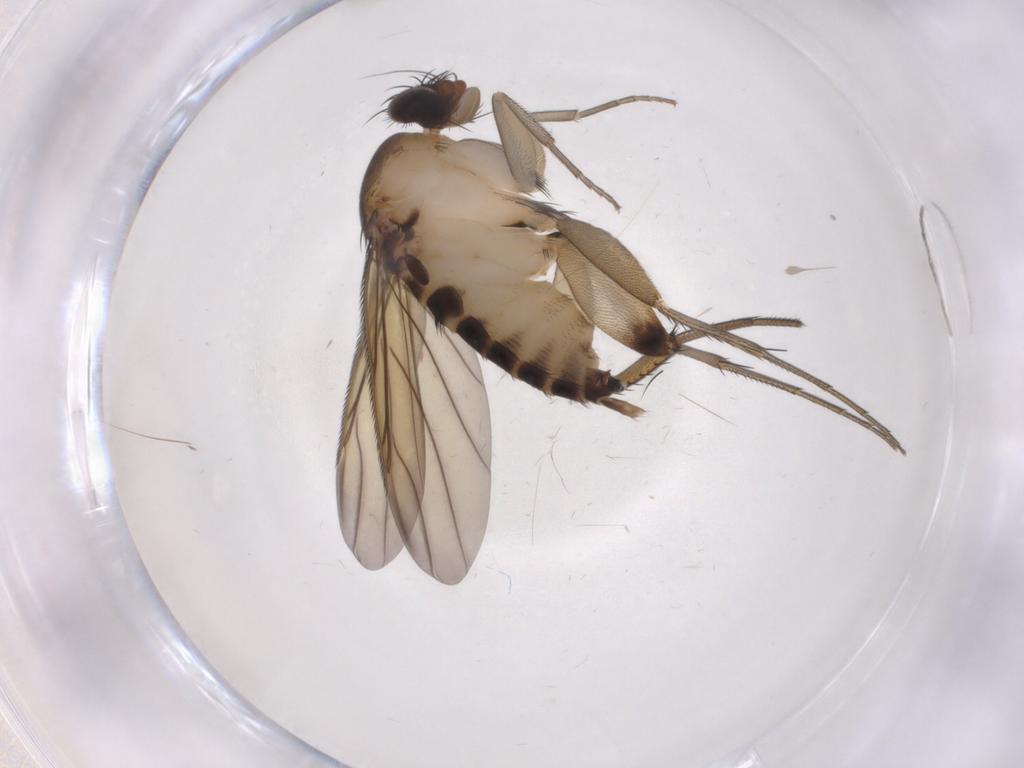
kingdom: Animalia
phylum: Arthropoda
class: Insecta
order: Diptera
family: Phoridae
